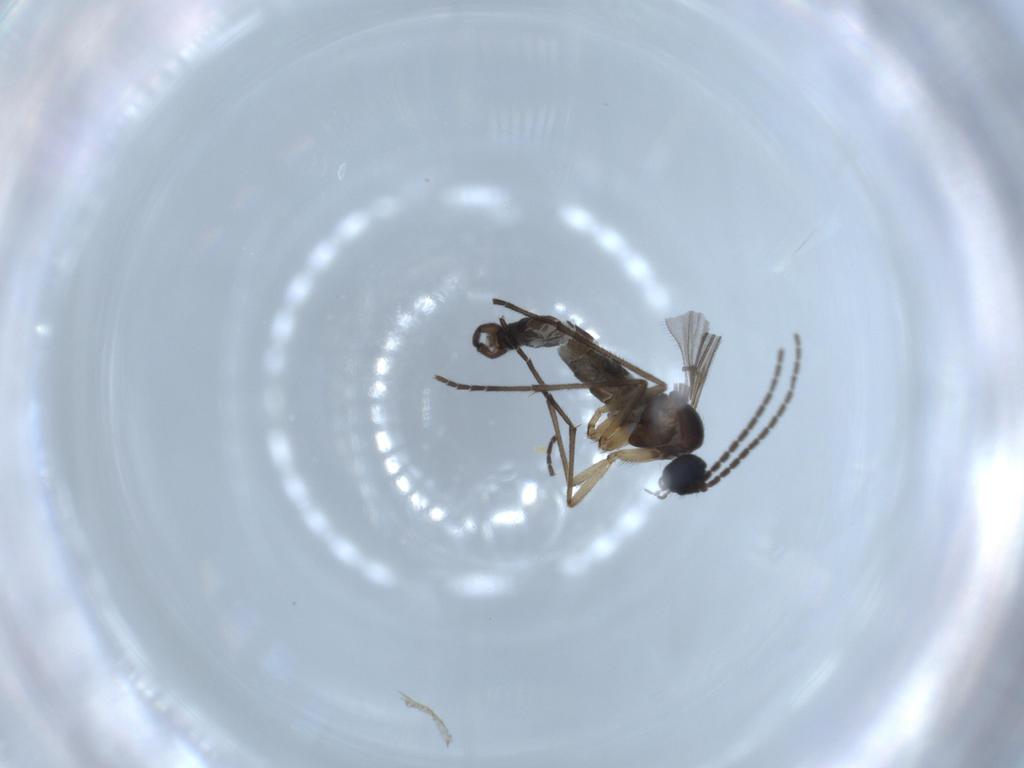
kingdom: Animalia
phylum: Arthropoda
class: Insecta
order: Diptera
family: Sciaridae
